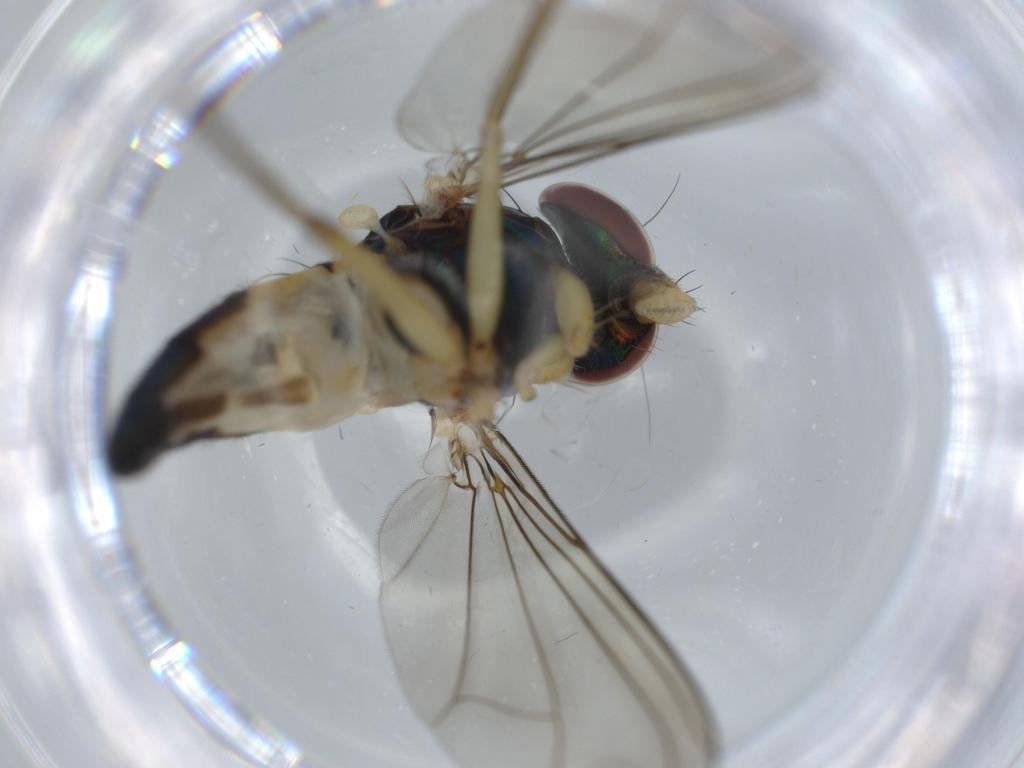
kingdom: Animalia
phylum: Arthropoda
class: Insecta
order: Diptera
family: Dolichopodidae
